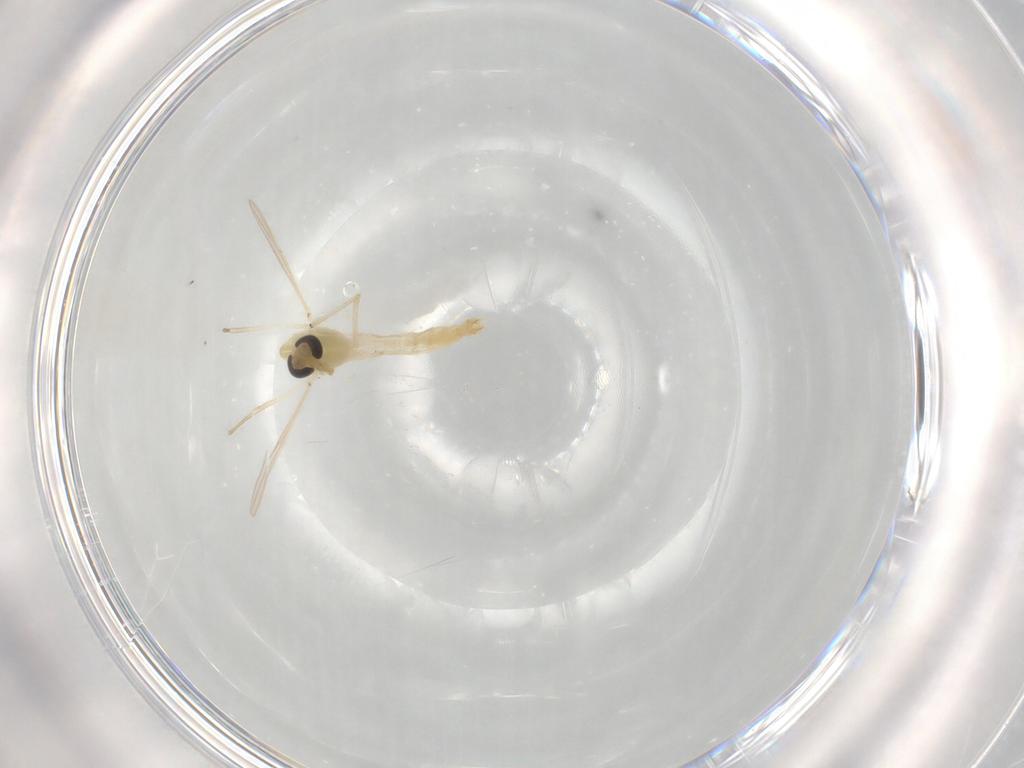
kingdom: Animalia
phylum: Arthropoda
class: Insecta
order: Diptera
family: Chironomidae
